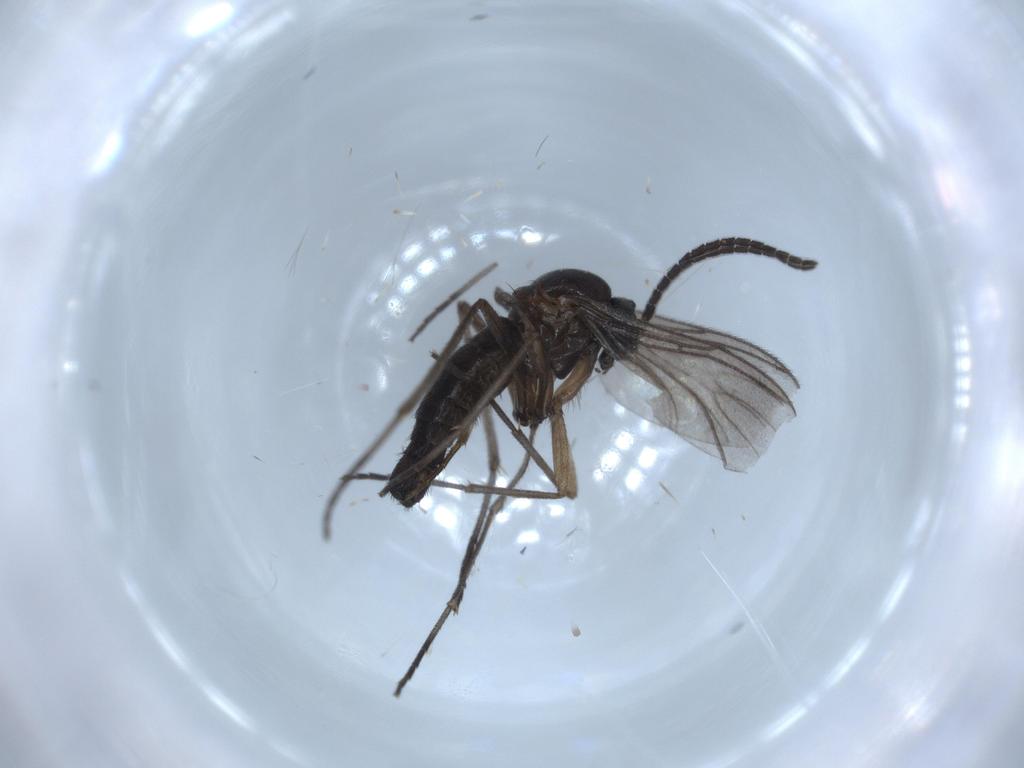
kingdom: Animalia
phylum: Arthropoda
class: Insecta
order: Diptera
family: Sciaridae
